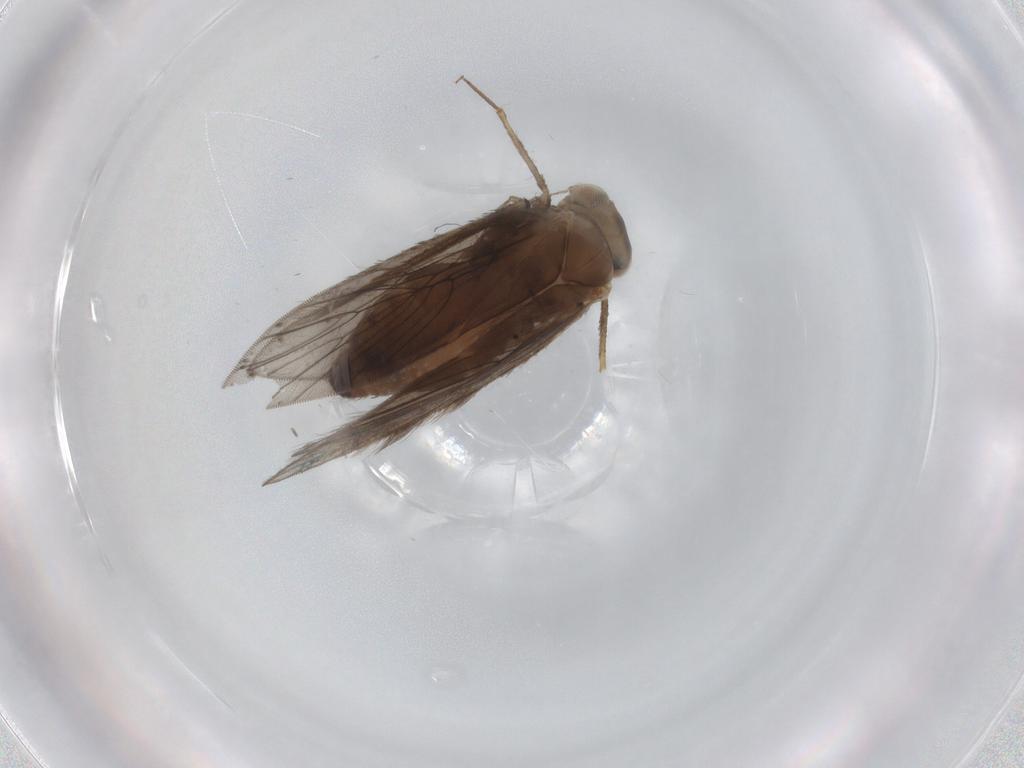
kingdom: Animalia
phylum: Arthropoda
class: Insecta
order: Psocodea
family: Lepidopsocidae
